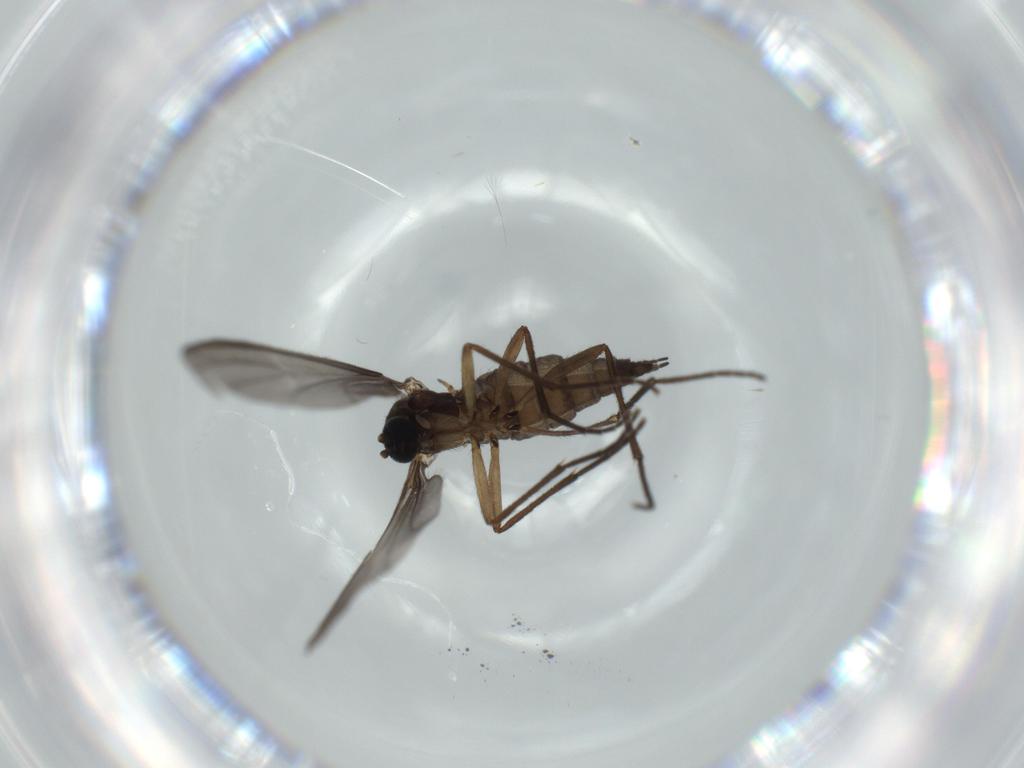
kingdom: Animalia
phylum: Arthropoda
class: Insecta
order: Diptera
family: Sciaridae
